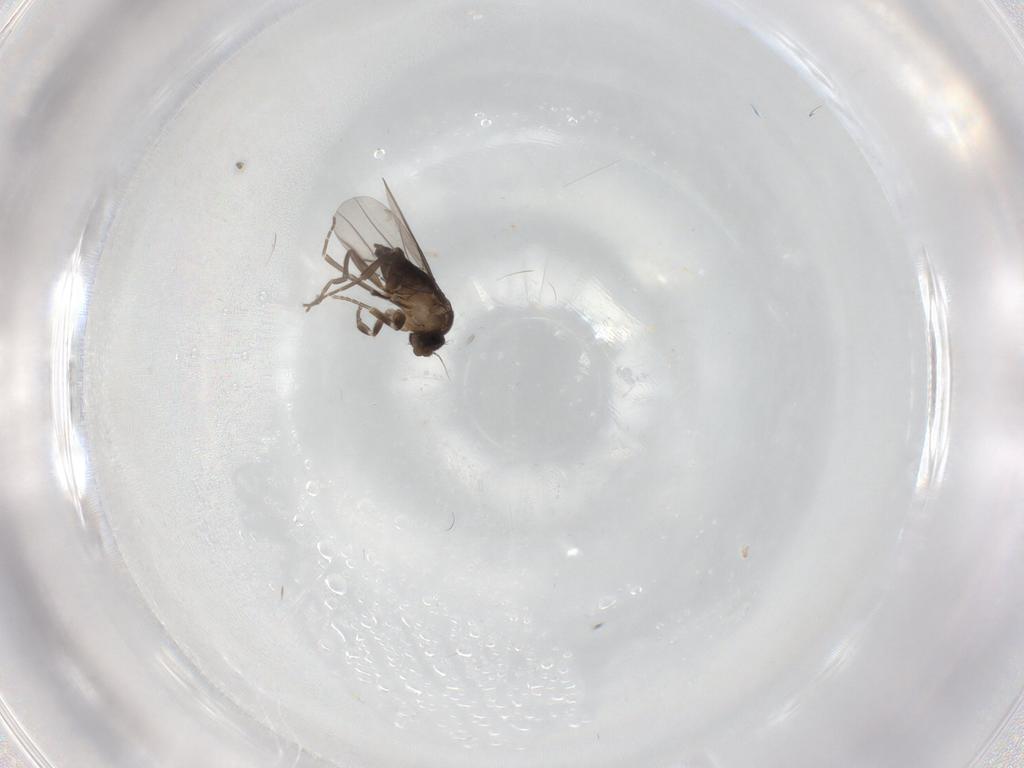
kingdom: Animalia
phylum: Arthropoda
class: Insecta
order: Diptera
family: Phoridae
